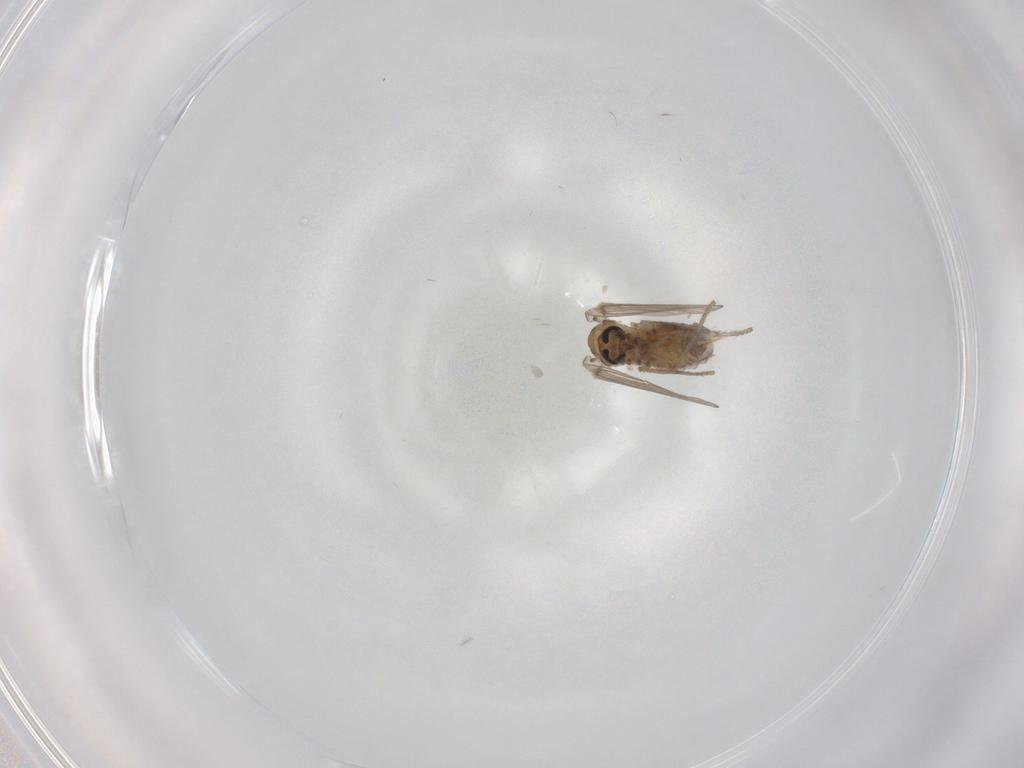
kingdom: Animalia
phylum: Arthropoda
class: Insecta
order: Diptera
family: Psychodidae
